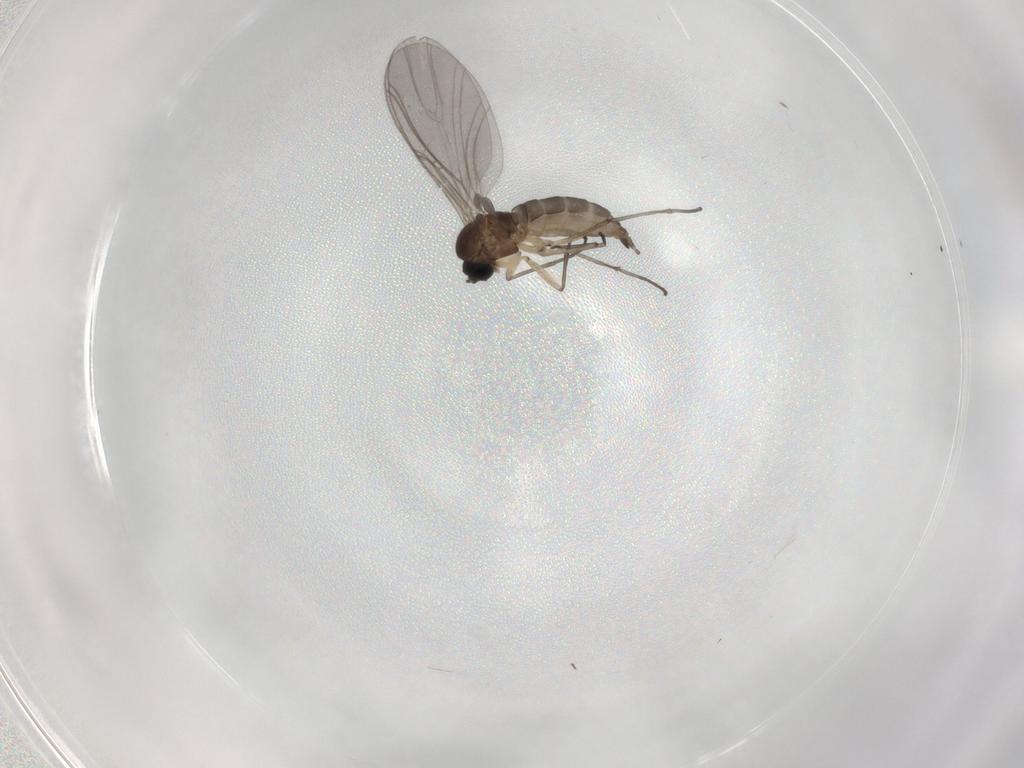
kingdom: Animalia
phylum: Arthropoda
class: Insecta
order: Diptera
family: Sciaridae
